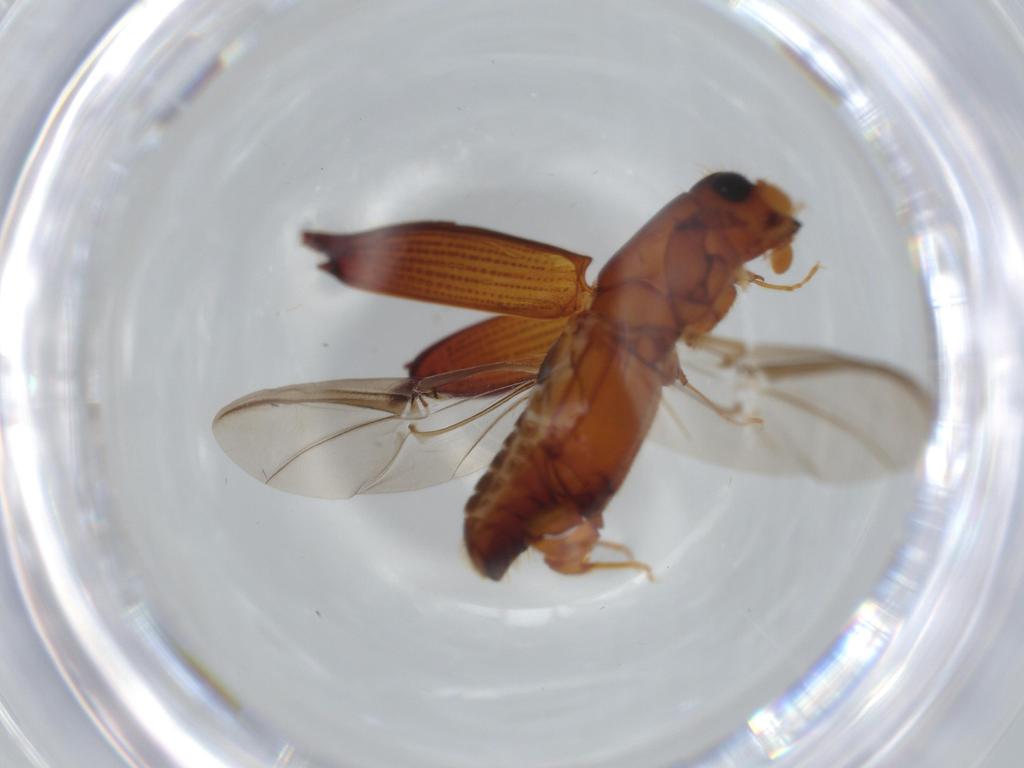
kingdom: Animalia
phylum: Arthropoda
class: Insecta
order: Coleoptera
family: Curculionidae
